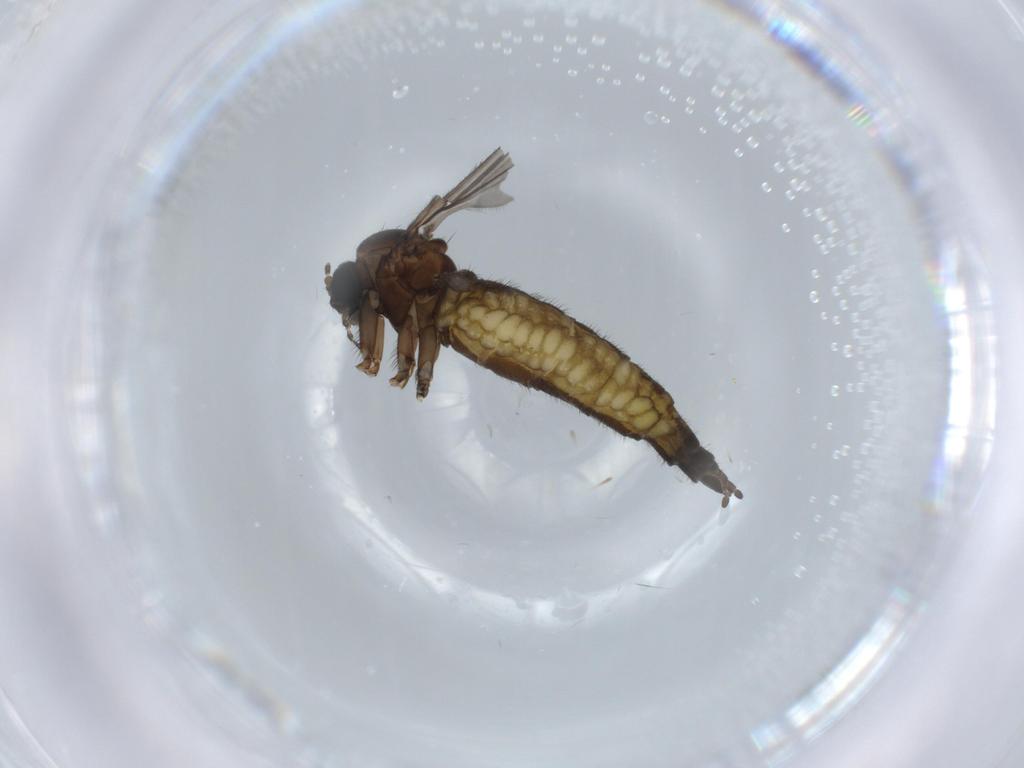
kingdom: Animalia
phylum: Arthropoda
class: Insecta
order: Diptera
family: Sciaridae
